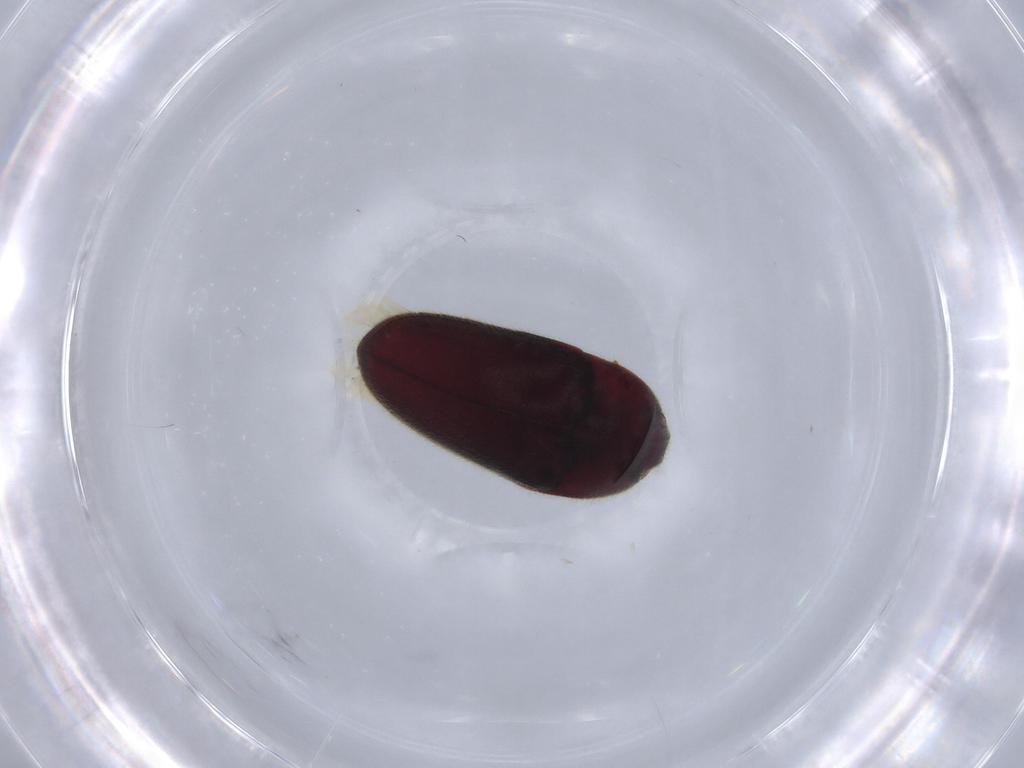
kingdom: Animalia
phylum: Arthropoda
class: Insecta
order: Coleoptera
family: Throscidae
